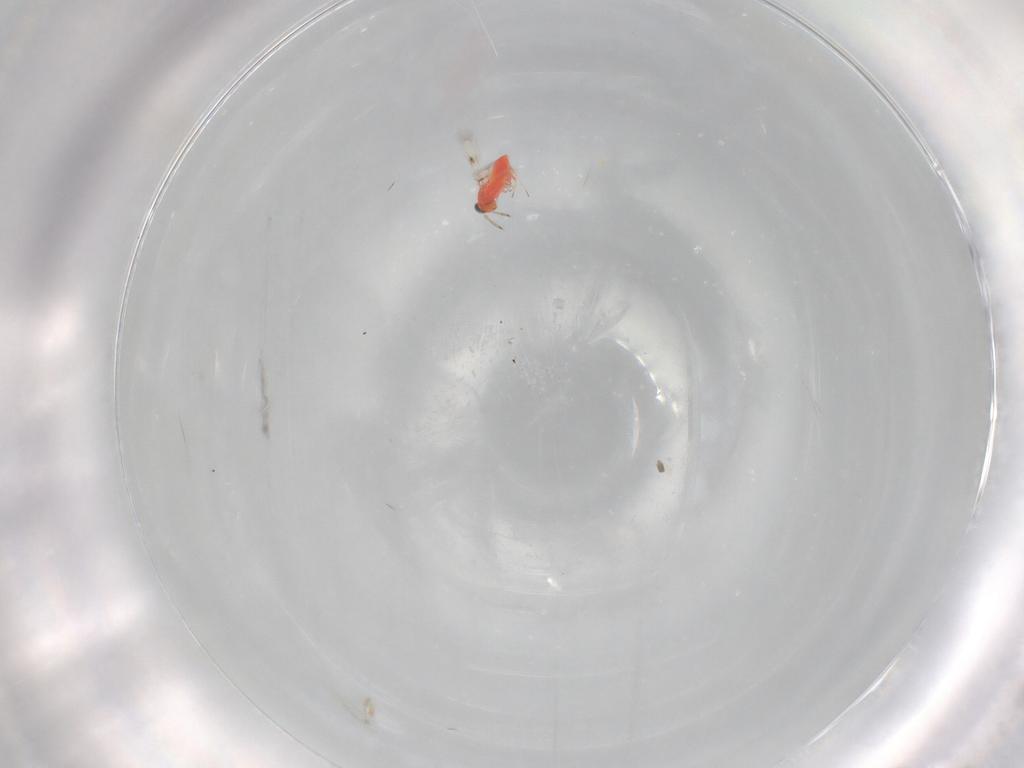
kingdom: Animalia
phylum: Arthropoda
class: Insecta
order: Hymenoptera
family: Trichogrammatidae
